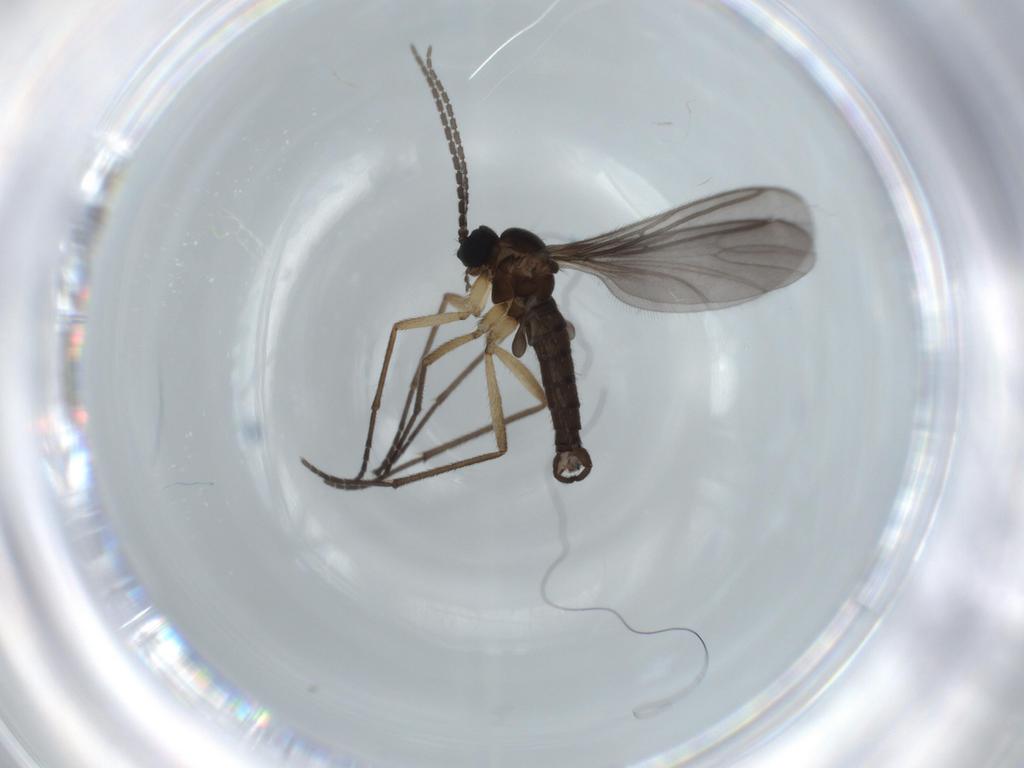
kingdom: Animalia
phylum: Arthropoda
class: Insecta
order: Diptera
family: Sciaridae
